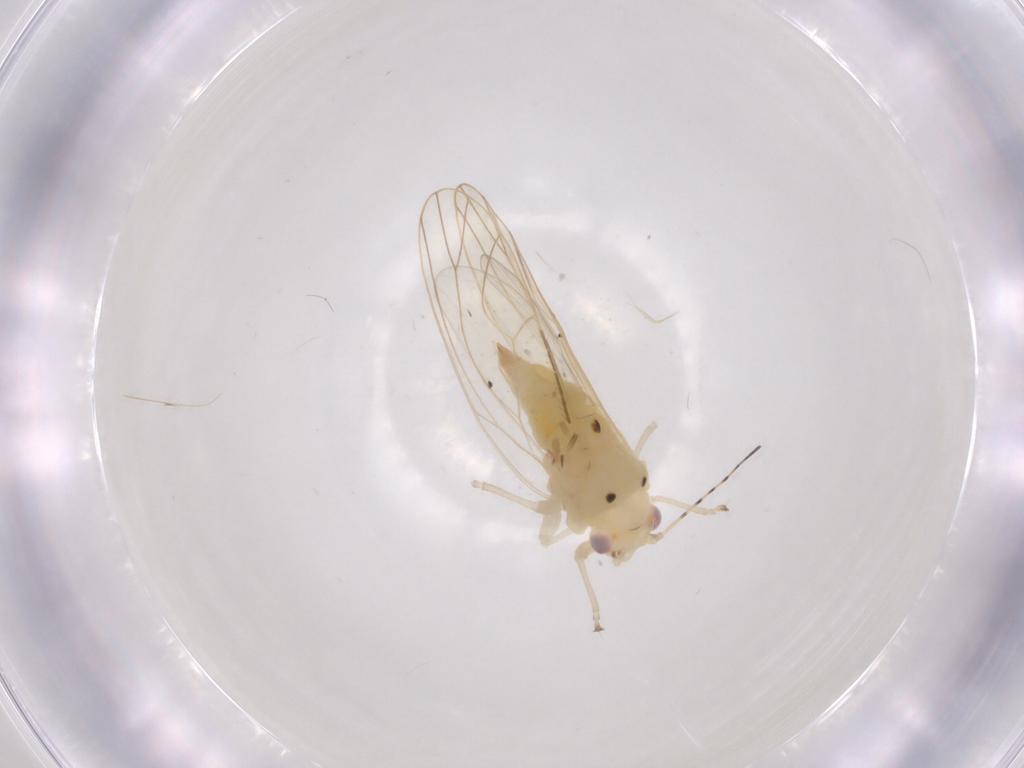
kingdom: Animalia
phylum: Arthropoda
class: Insecta
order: Psocodea
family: Philotarsidae
